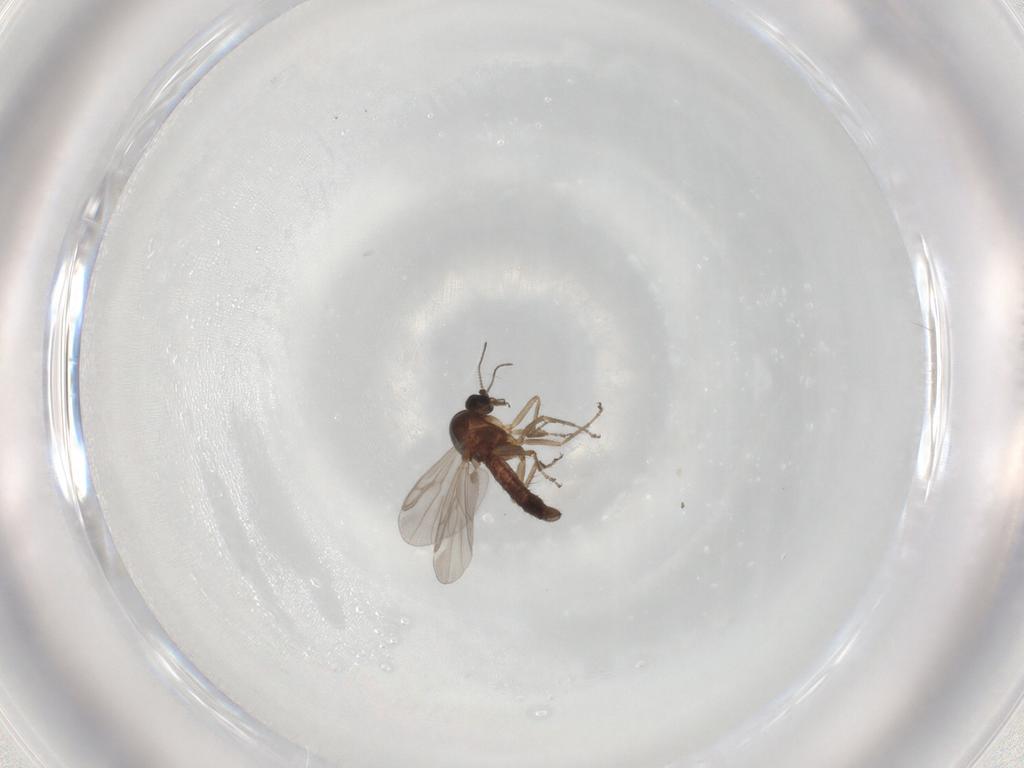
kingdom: Animalia
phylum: Arthropoda
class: Insecta
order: Diptera
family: Ceratopogonidae
